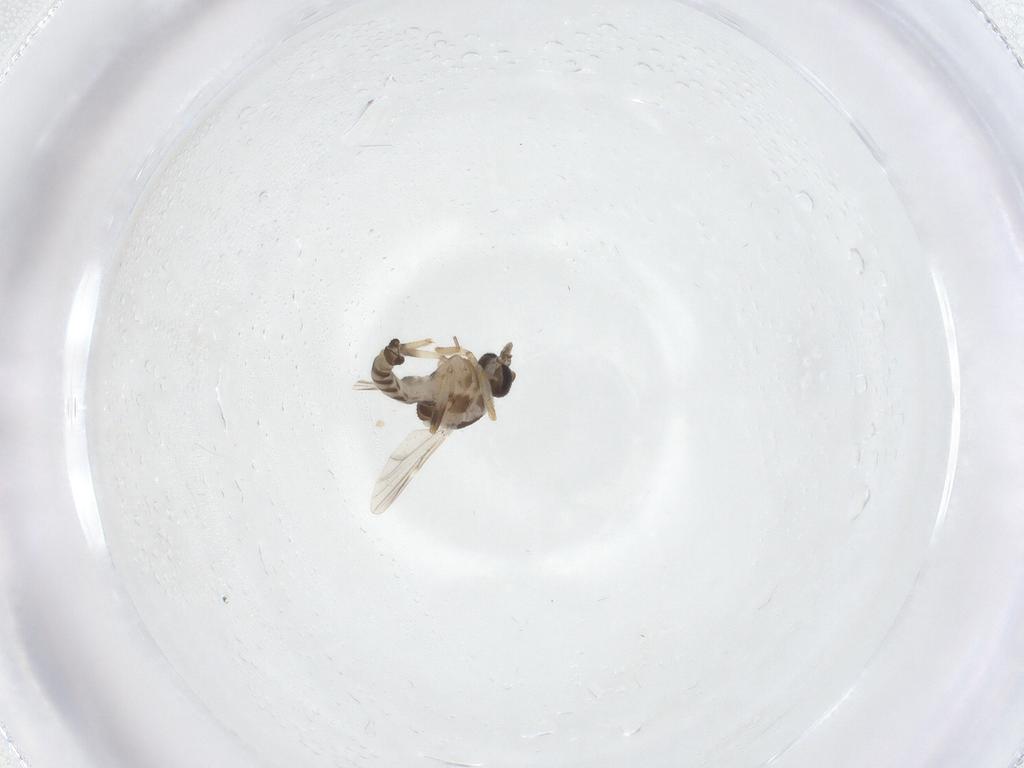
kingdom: Animalia
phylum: Arthropoda
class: Insecta
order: Diptera
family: Ceratopogonidae
